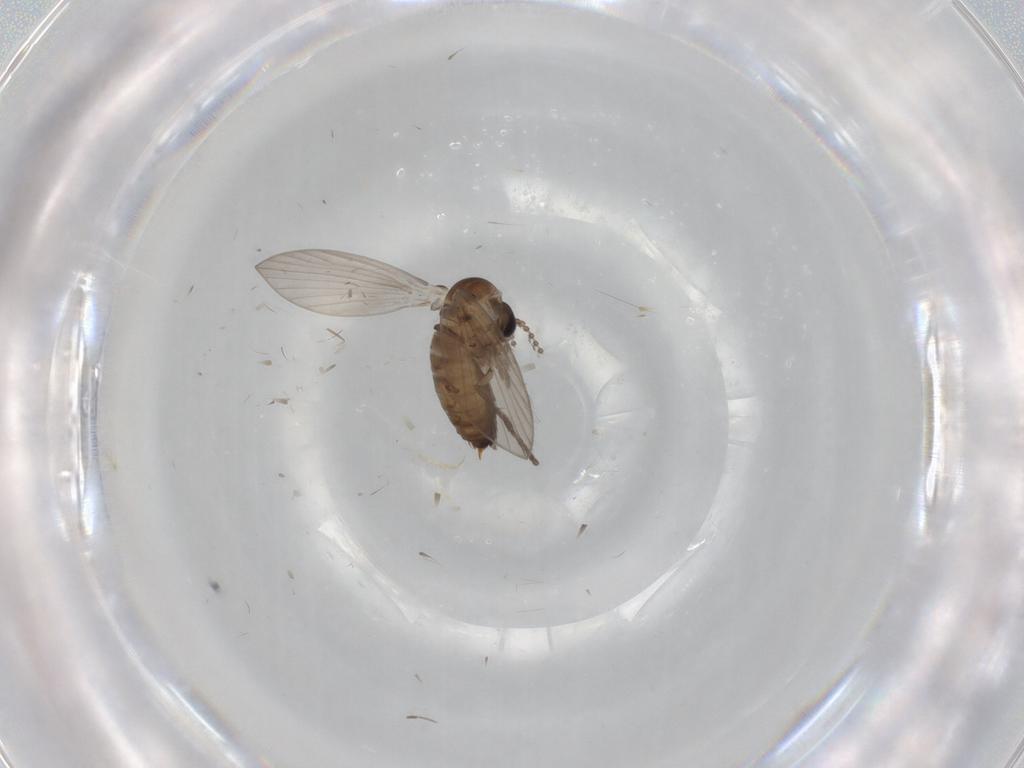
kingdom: Animalia
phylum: Arthropoda
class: Insecta
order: Diptera
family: Psychodidae
